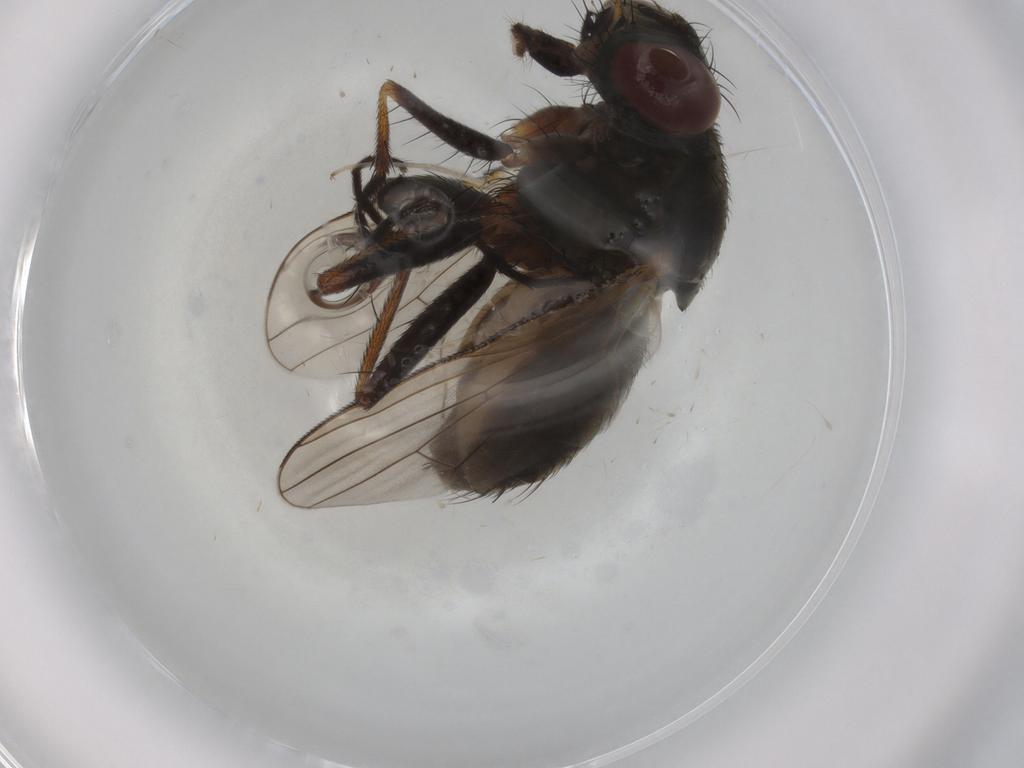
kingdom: Animalia
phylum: Arthropoda
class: Insecta
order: Diptera
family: Muscidae
